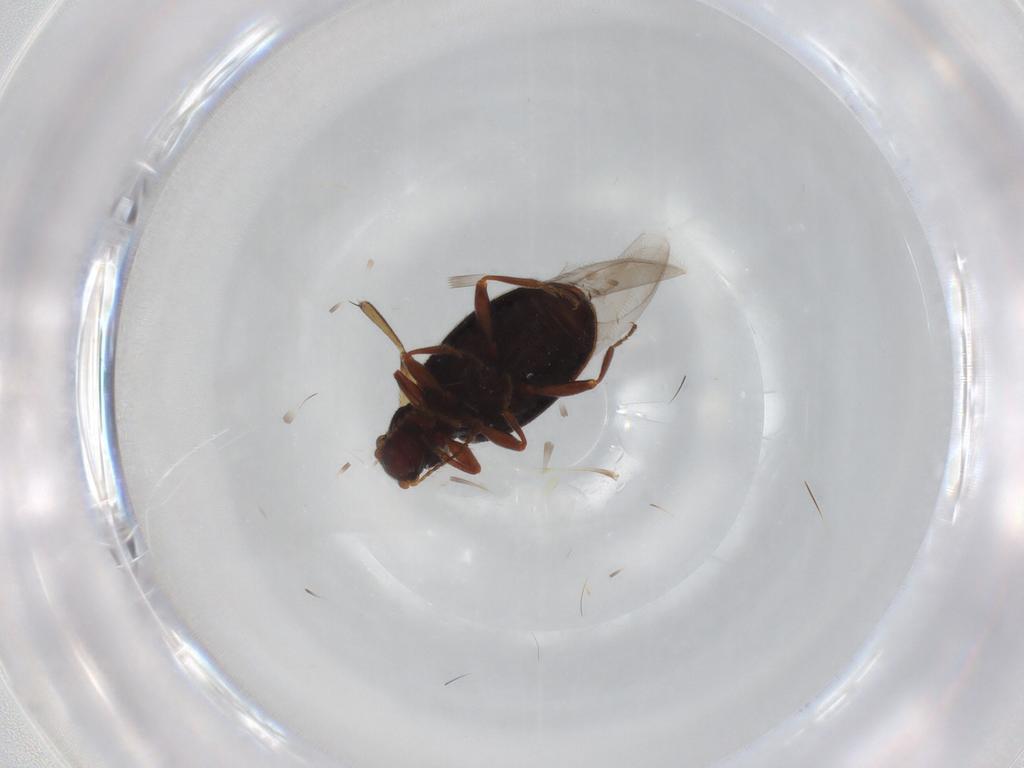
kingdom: Animalia
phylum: Arthropoda
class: Insecta
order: Coleoptera
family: Latridiidae
